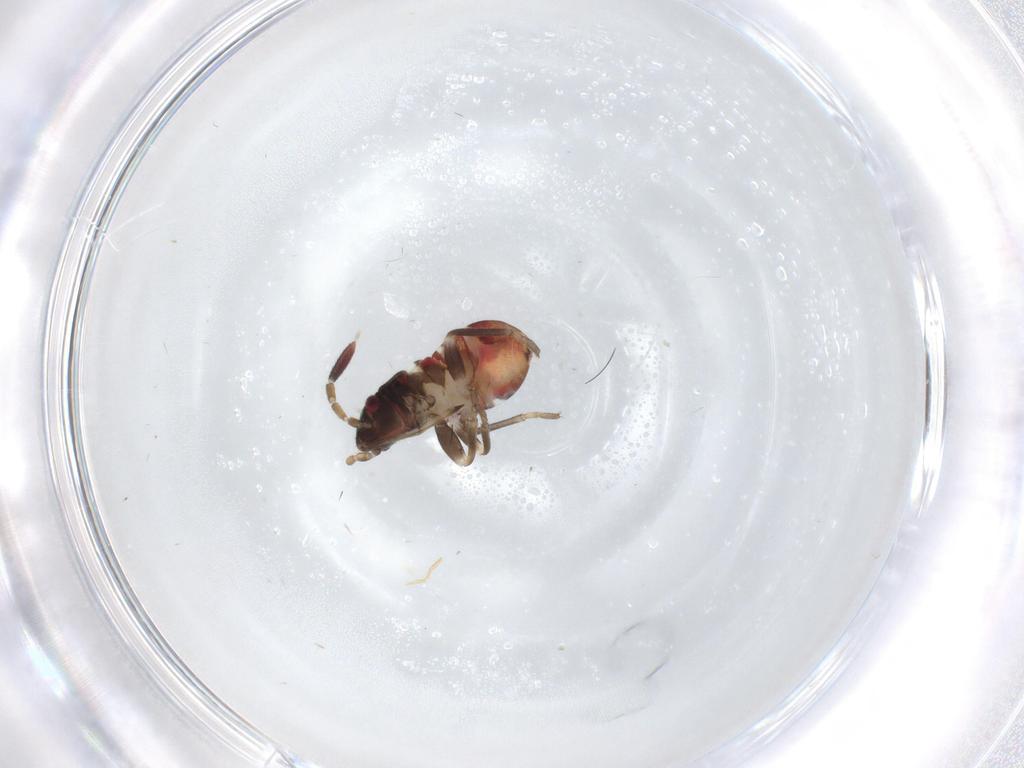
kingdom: Animalia
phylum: Arthropoda
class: Insecta
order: Hemiptera
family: Rhyparochromidae
